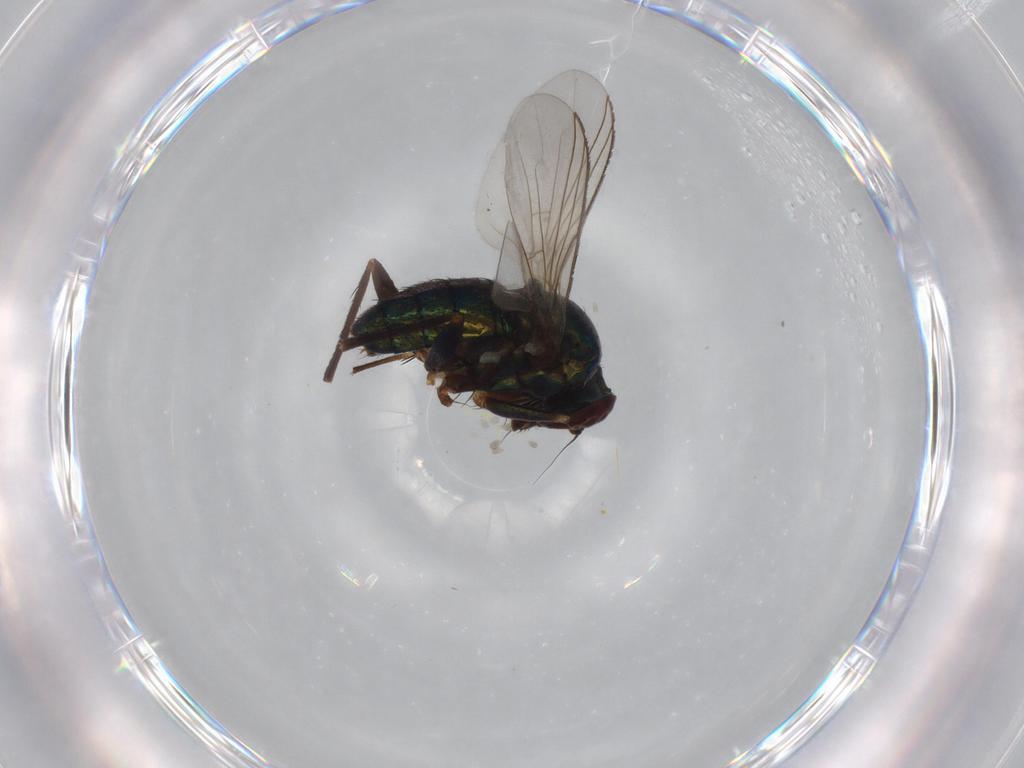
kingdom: Animalia
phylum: Arthropoda
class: Insecta
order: Diptera
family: Dolichopodidae
